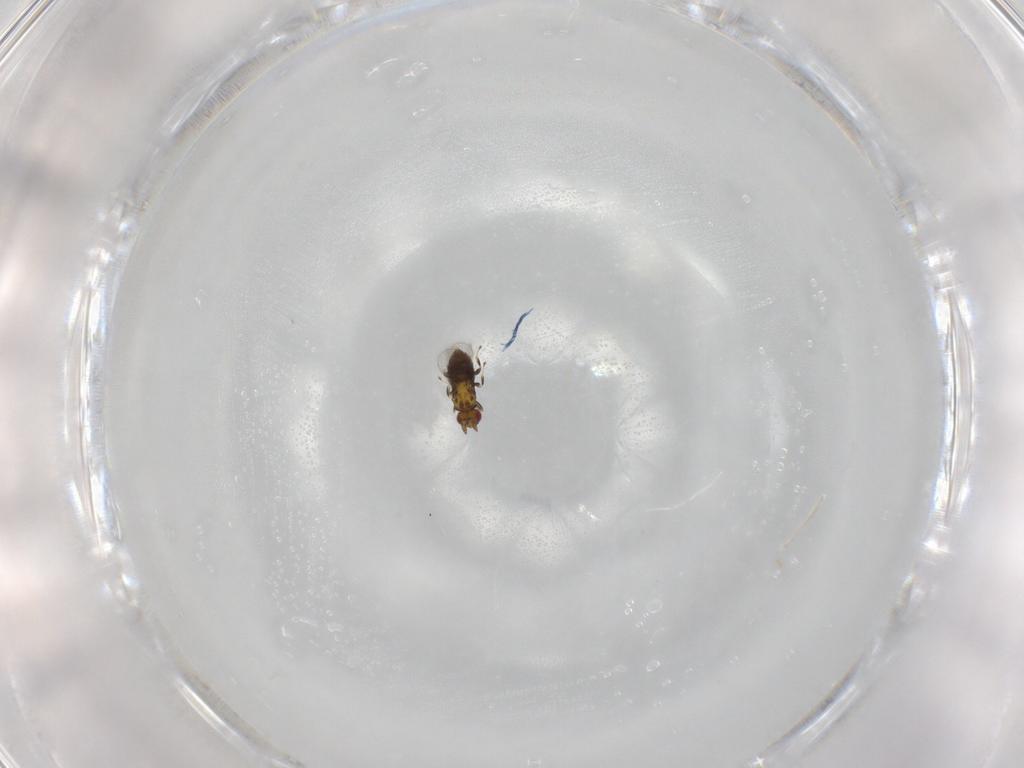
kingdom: Animalia
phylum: Arthropoda
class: Insecta
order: Hymenoptera
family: Trichogrammatidae
